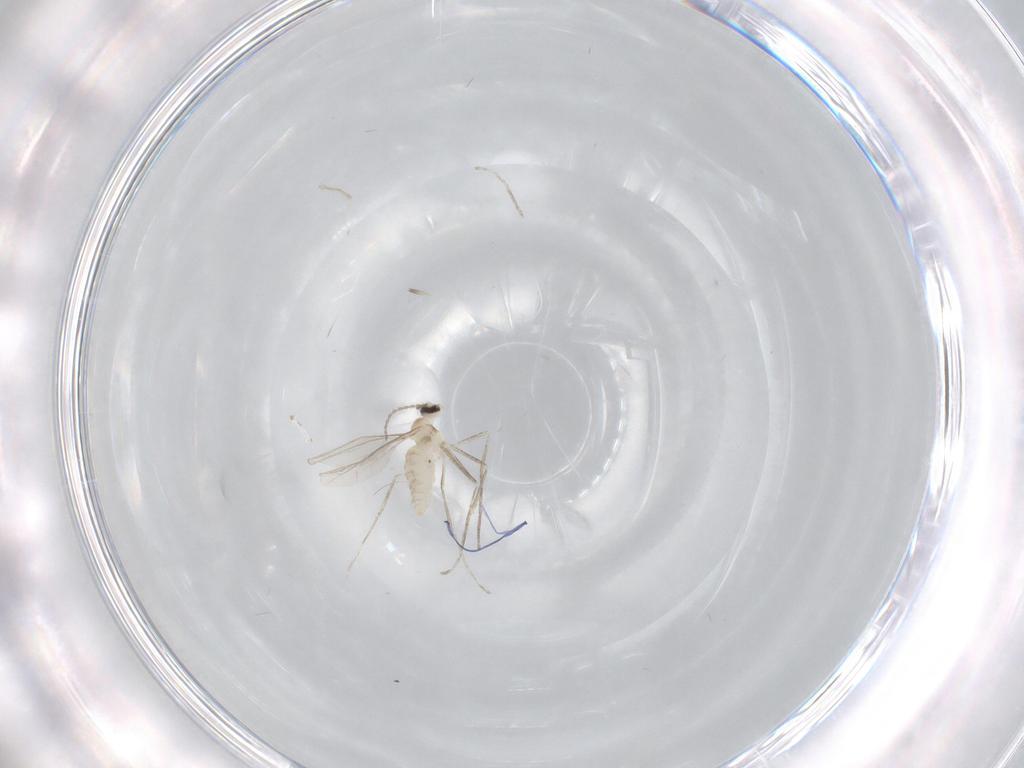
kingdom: Animalia
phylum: Arthropoda
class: Insecta
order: Diptera
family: Cecidomyiidae
